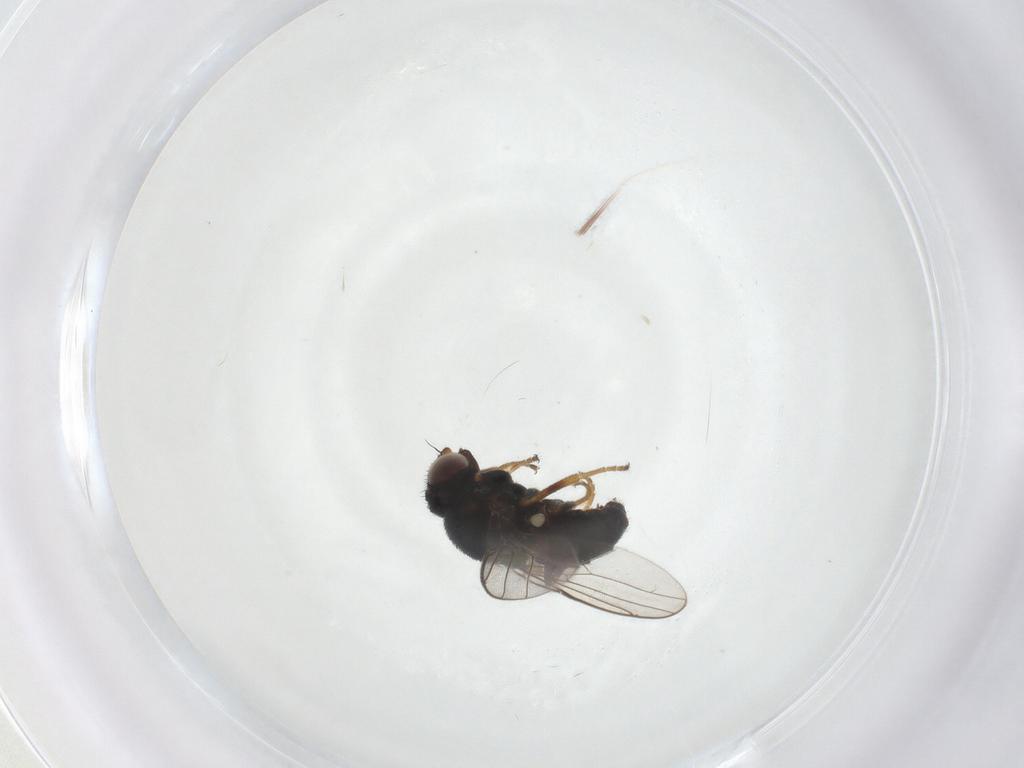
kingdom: Animalia
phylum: Arthropoda
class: Insecta
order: Diptera
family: Chloropidae
